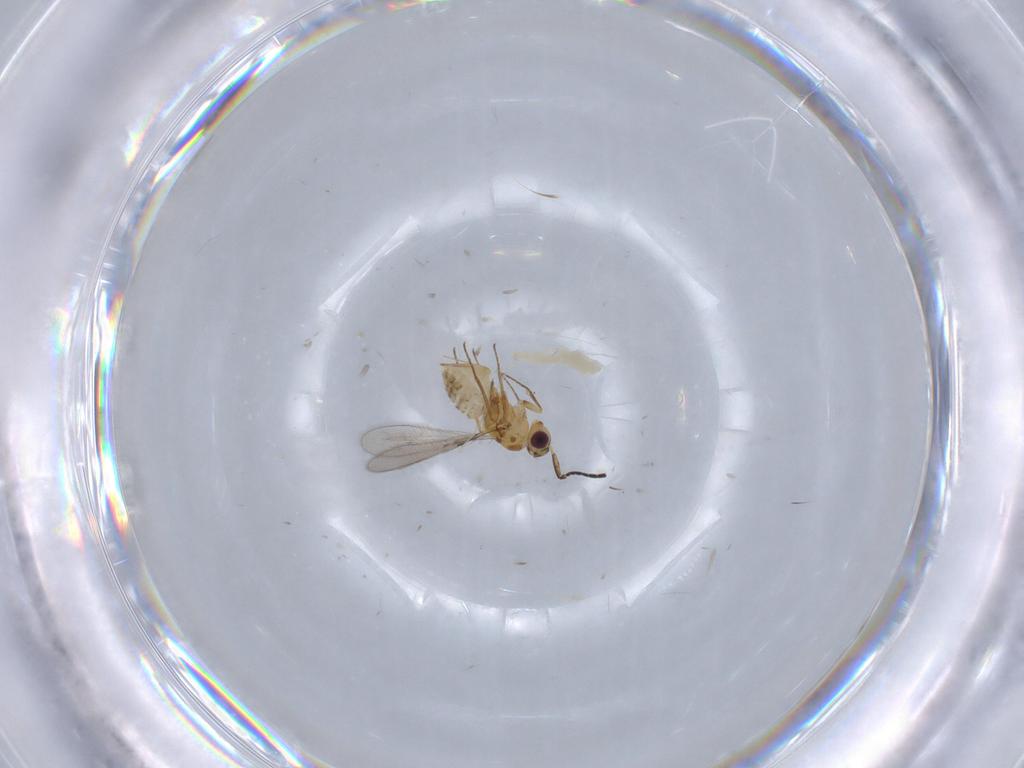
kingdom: Animalia
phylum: Arthropoda
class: Insecta
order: Hymenoptera
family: Mymaridae
